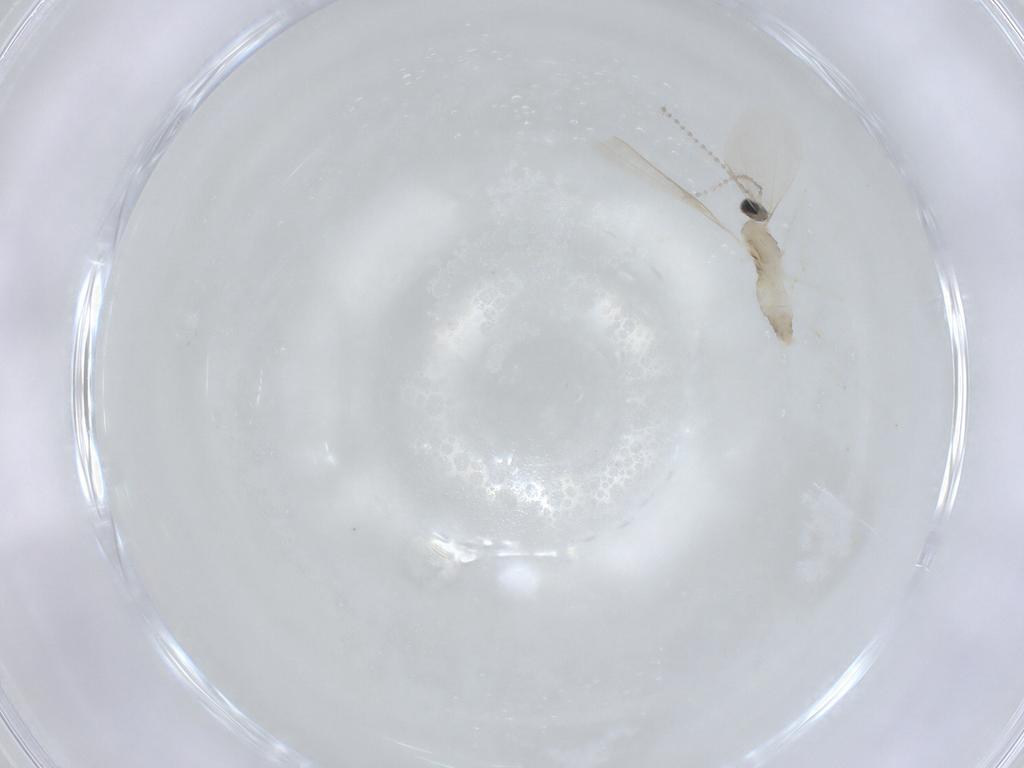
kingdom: Animalia
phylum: Arthropoda
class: Insecta
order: Diptera
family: Cecidomyiidae
